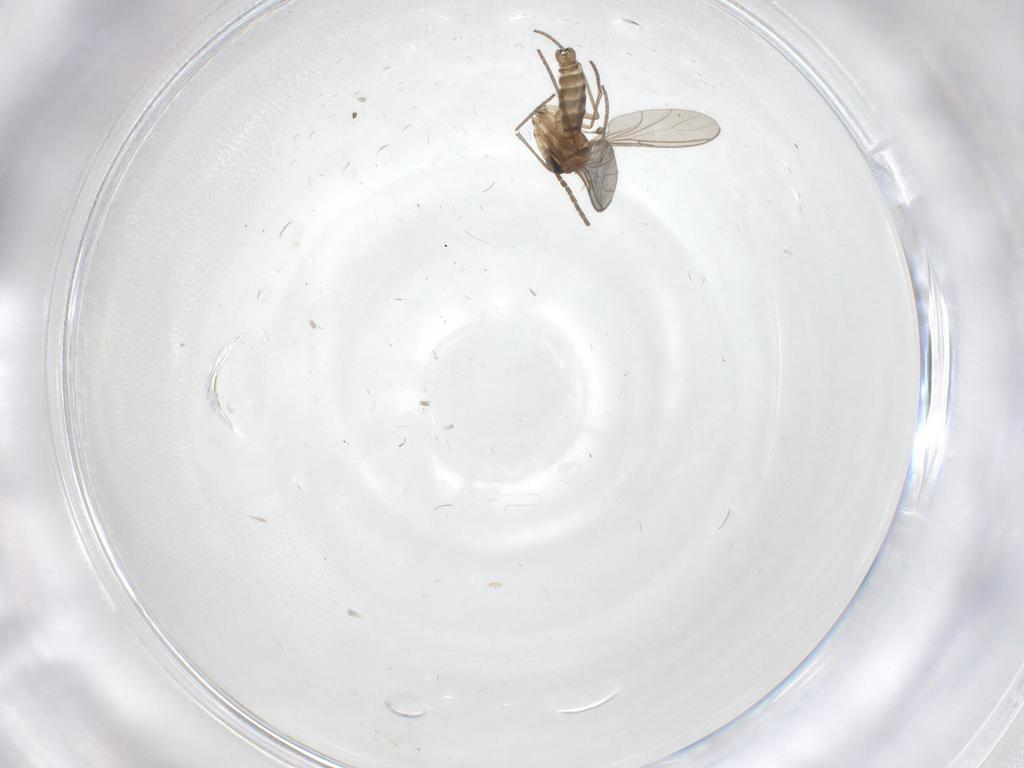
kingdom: Animalia
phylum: Arthropoda
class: Insecta
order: Diptera
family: Sciaridae
